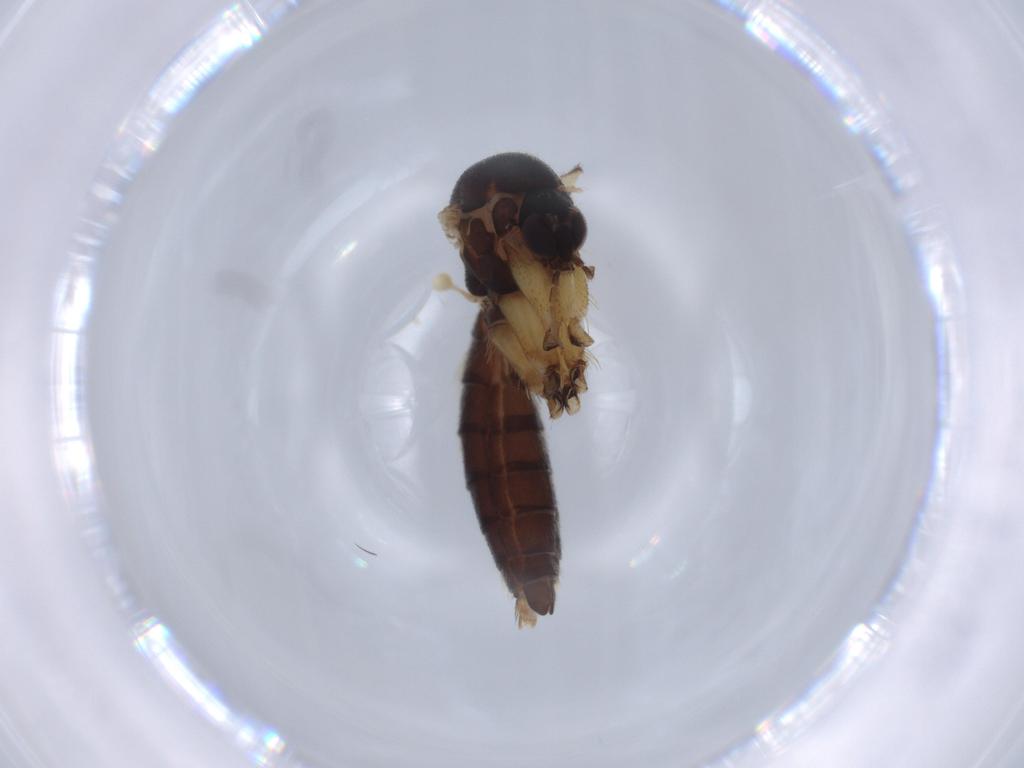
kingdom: Animalia
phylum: Arthropoda
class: Insecta
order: Diptera
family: Mycetophilidae
